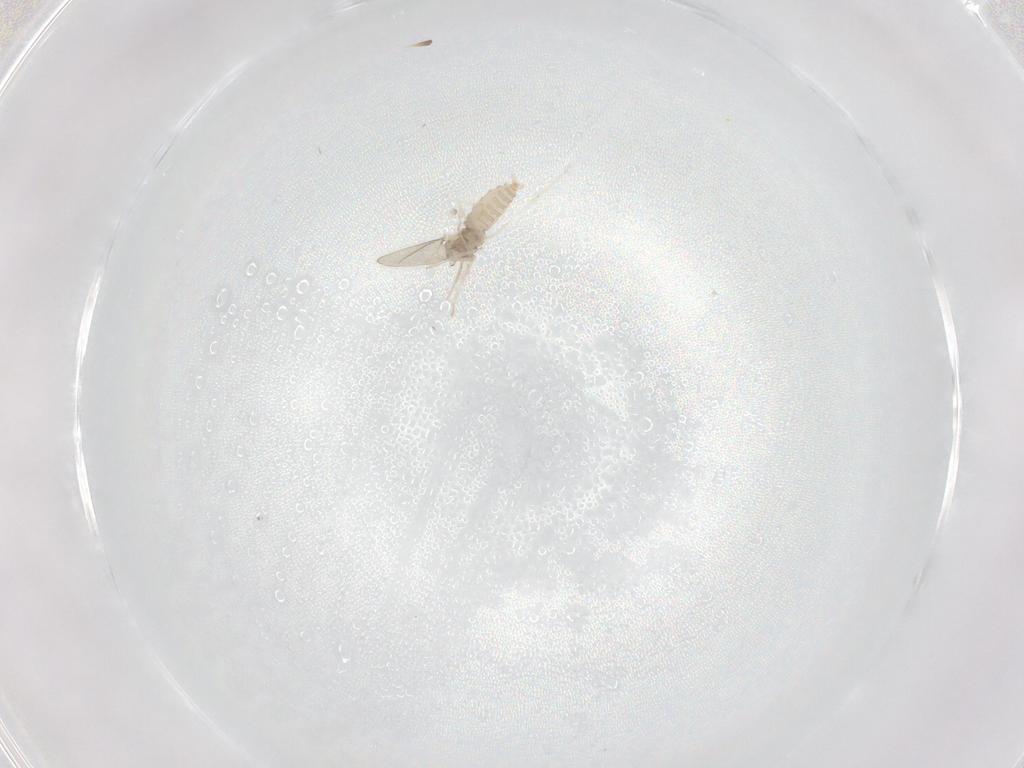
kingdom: Animalia
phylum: Arthropoda
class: Insecta
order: Diptera
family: Cecidomyiidae
